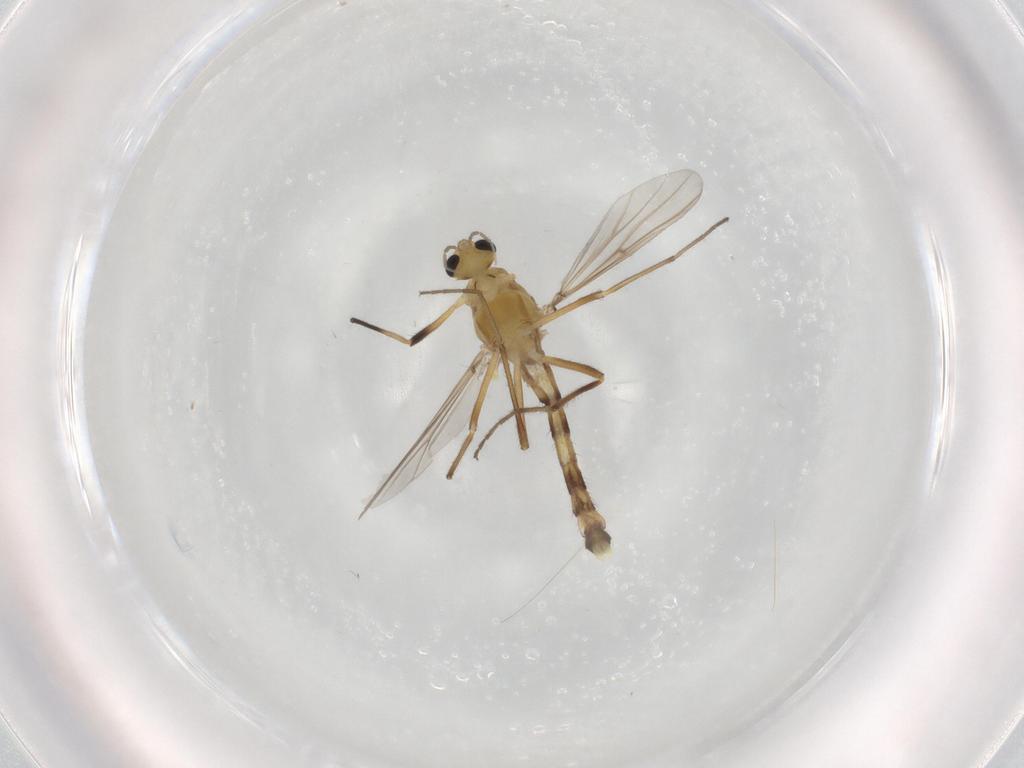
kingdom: Animalia
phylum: Arthropoda
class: Insecta
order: Diptera
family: Chironomidae
